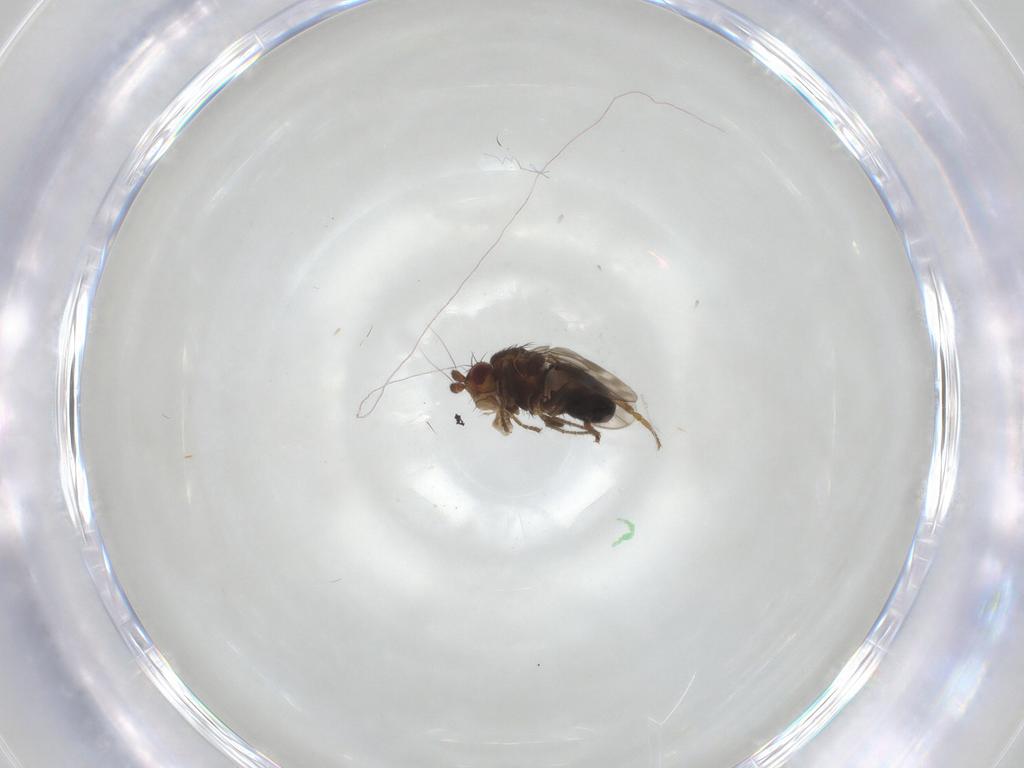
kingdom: Animalia
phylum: Arthropoda
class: Insecta
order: Diptera
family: Sphaeroceridae
